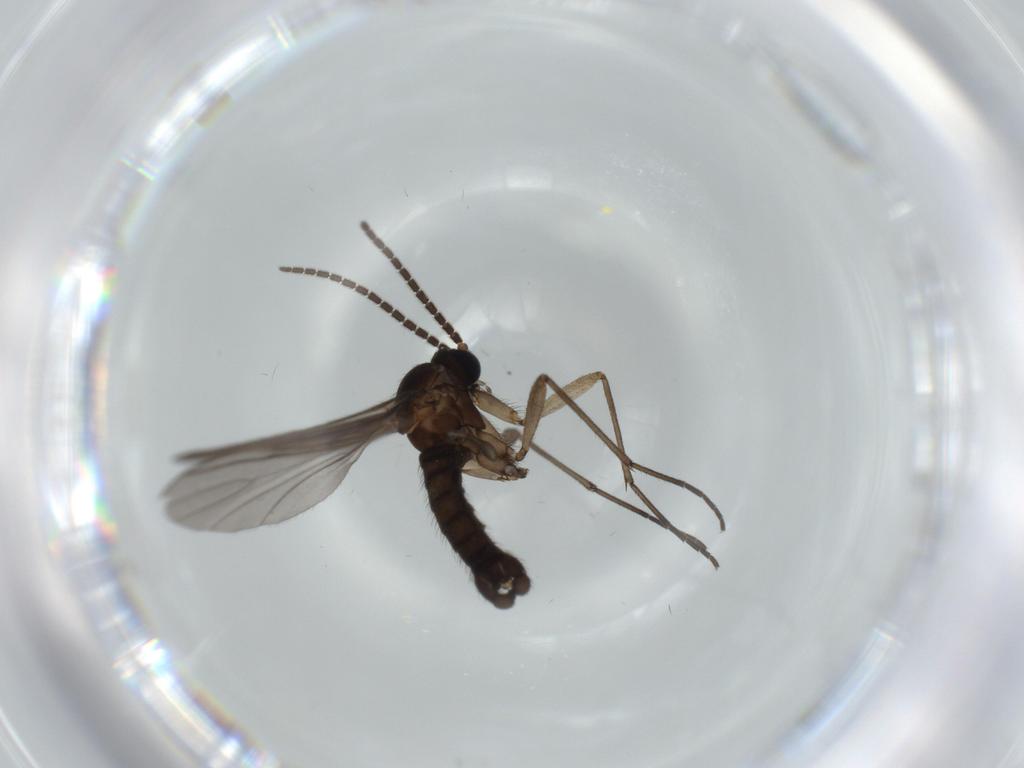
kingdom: Animalia
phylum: Arthropoda
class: Insecta
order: Diptera
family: Sciaridae
